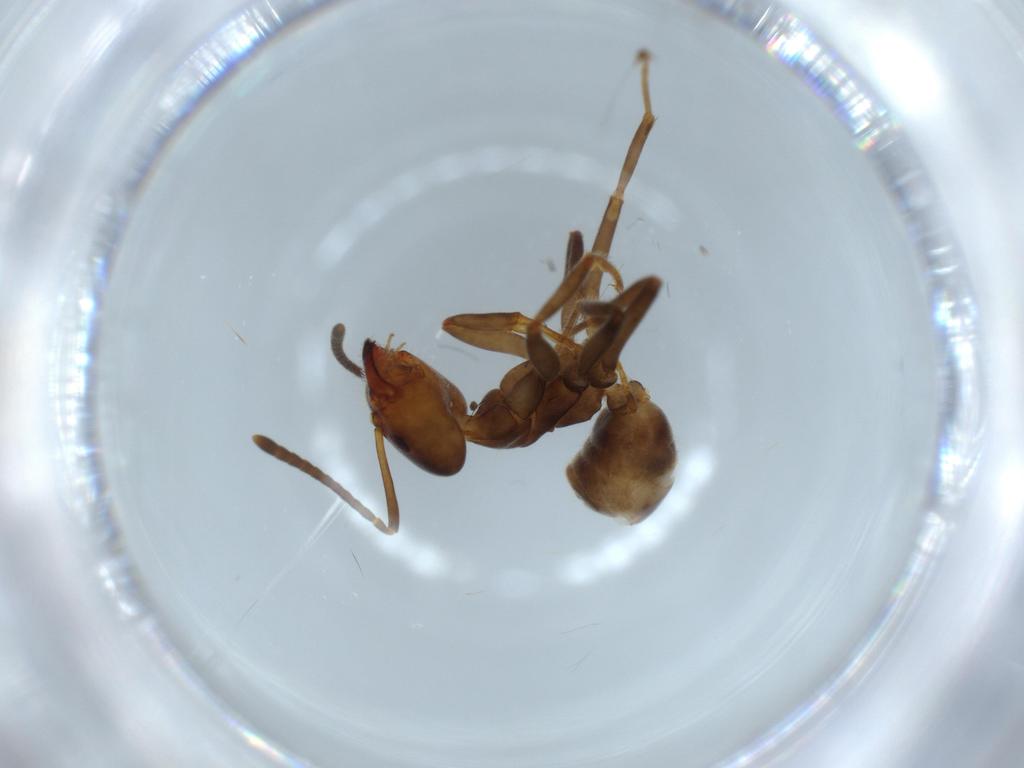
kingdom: Animalia
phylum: Arthropoda
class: Insecta
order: Hymenoptera
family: Formicidae
